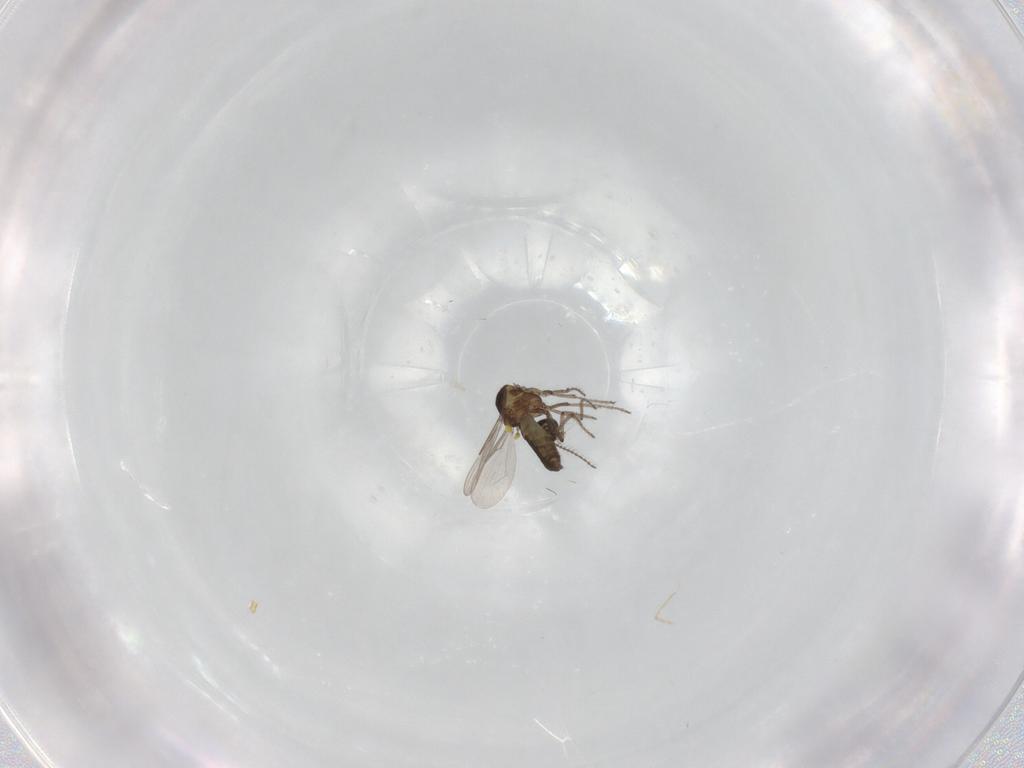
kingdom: Animalia
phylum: Arthropoda
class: Insecta
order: Diptera
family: Ceratopogonidae
